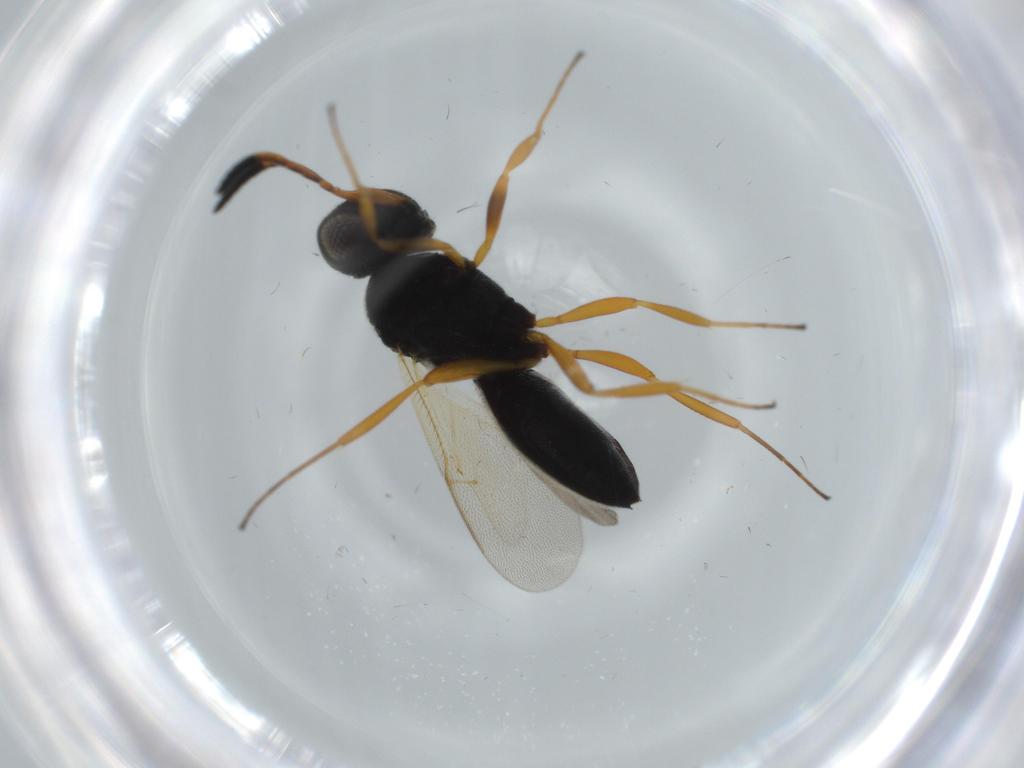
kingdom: Animalia
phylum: Arthropoda
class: Insecta
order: Hymenoptera
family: Scelionidae
